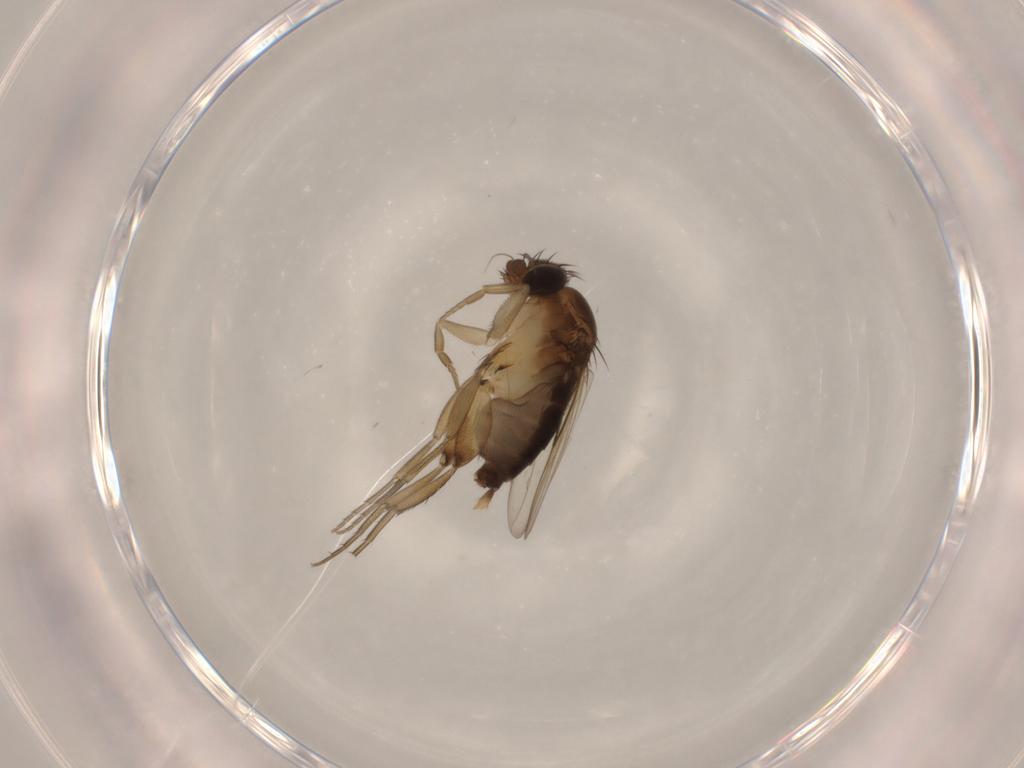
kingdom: Animalia
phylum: Arthropoda
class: Insecta
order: Diptera
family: Phoridae
